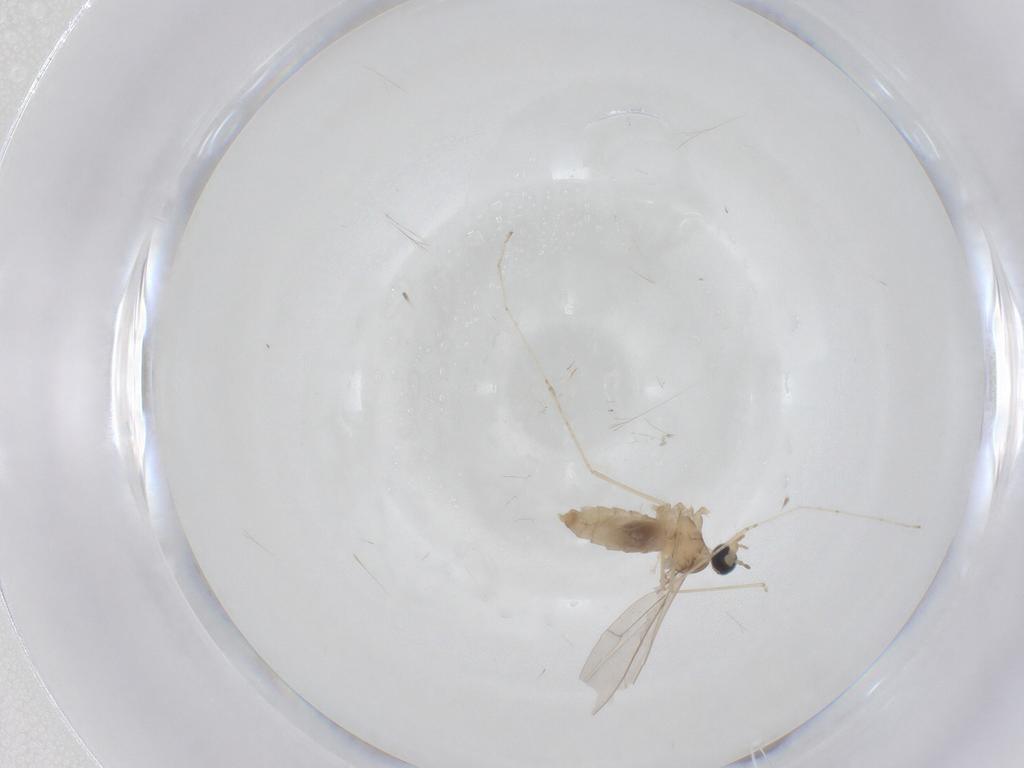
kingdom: Animalia
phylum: Arthropoda
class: Insecta
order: Diptera
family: Cecidomyiidae
